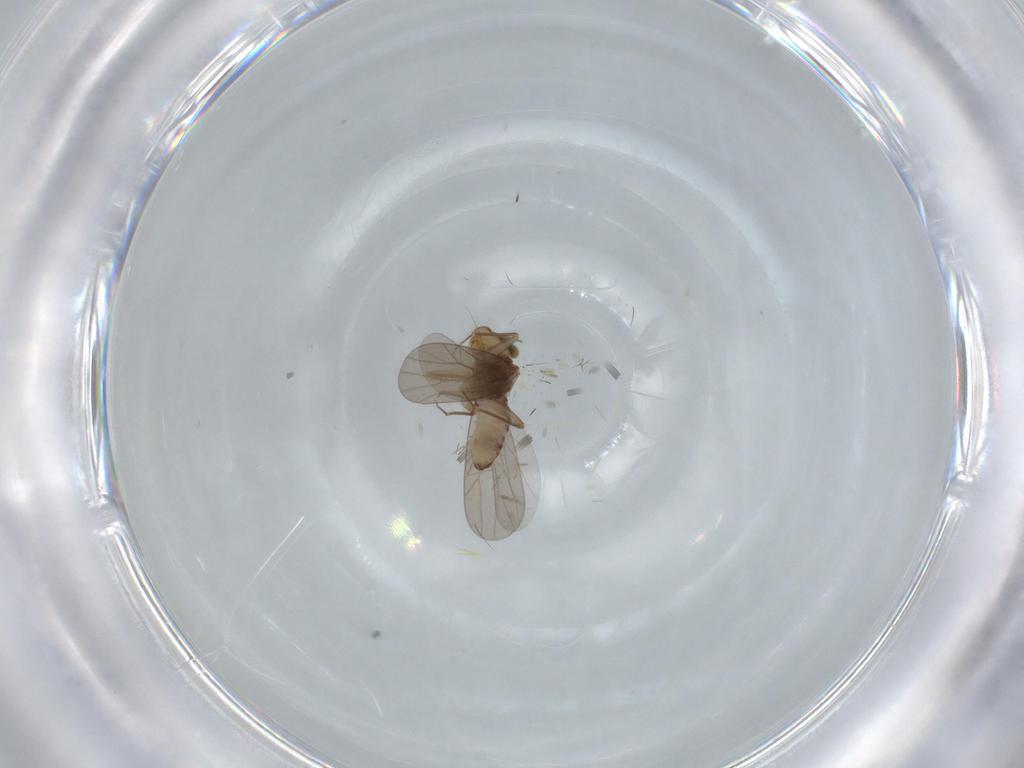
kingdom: Animalia
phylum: Arthropoda
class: Insecta
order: Psocodea
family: Lepidopsocidae
